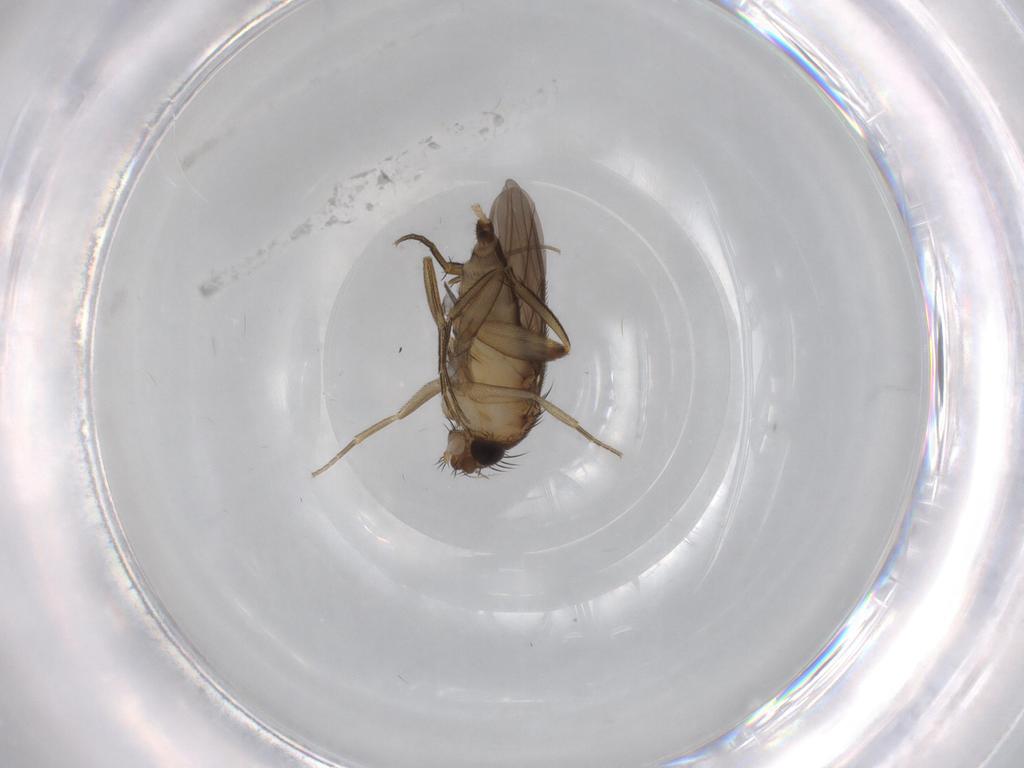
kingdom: Animalia
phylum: Arthropoda
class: Insecta
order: Diptera
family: Phoridae
